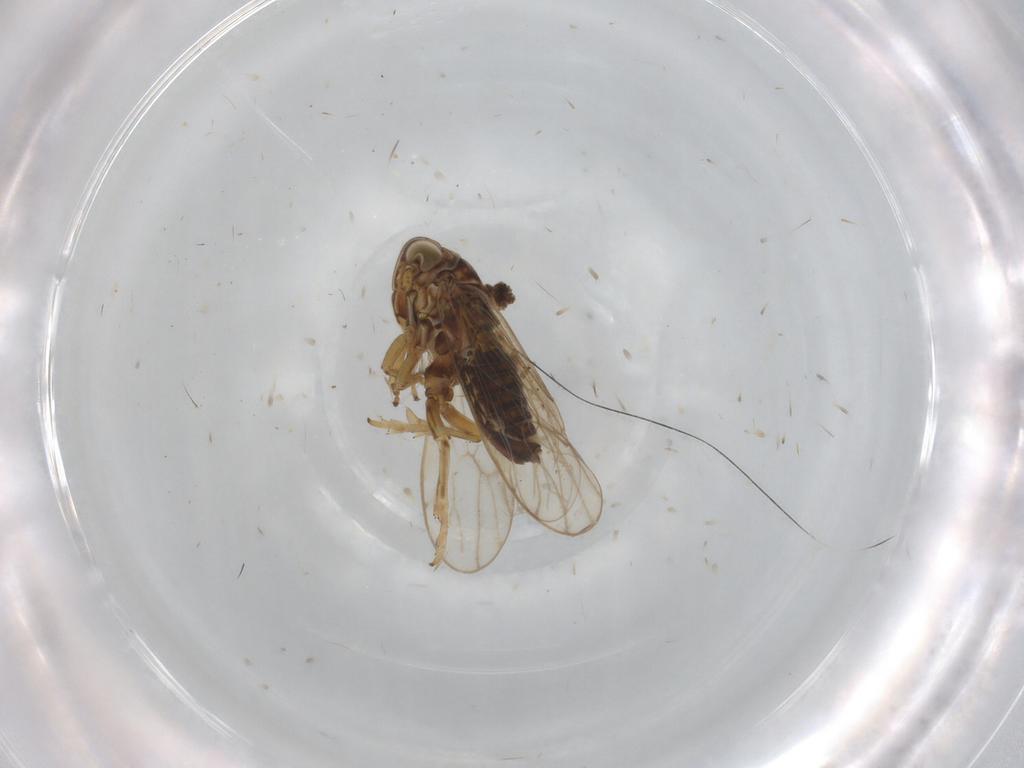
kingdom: Animalia
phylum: Arthropoda
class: Insecta
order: Hemiptera
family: Delphacidae
